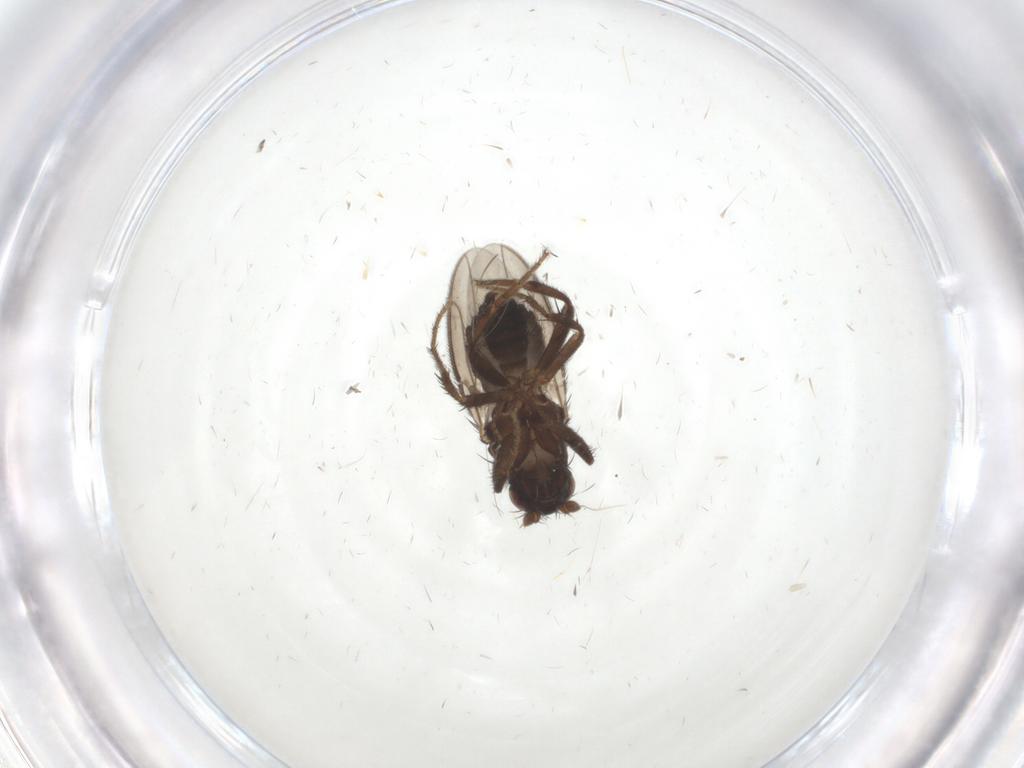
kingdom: Animalia
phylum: Arthropoda
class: Insecta
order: Diptera
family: Sphaeroceridae
